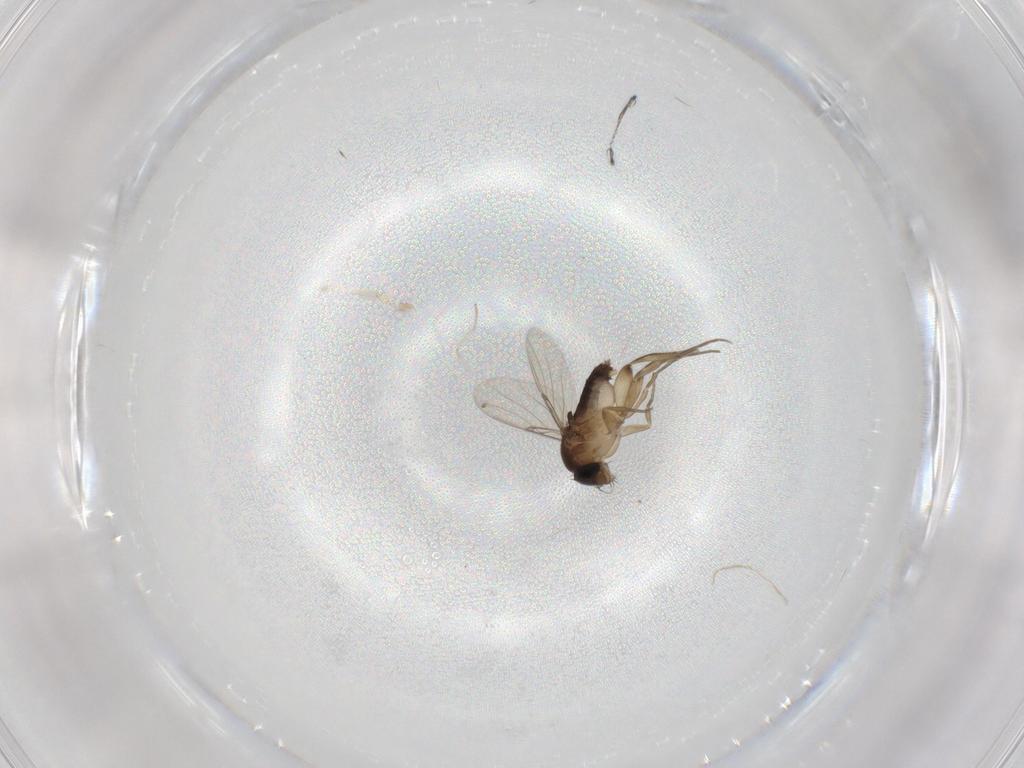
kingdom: Animalia
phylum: Arthropoda
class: Insecta
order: Diptera
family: Phoridae
